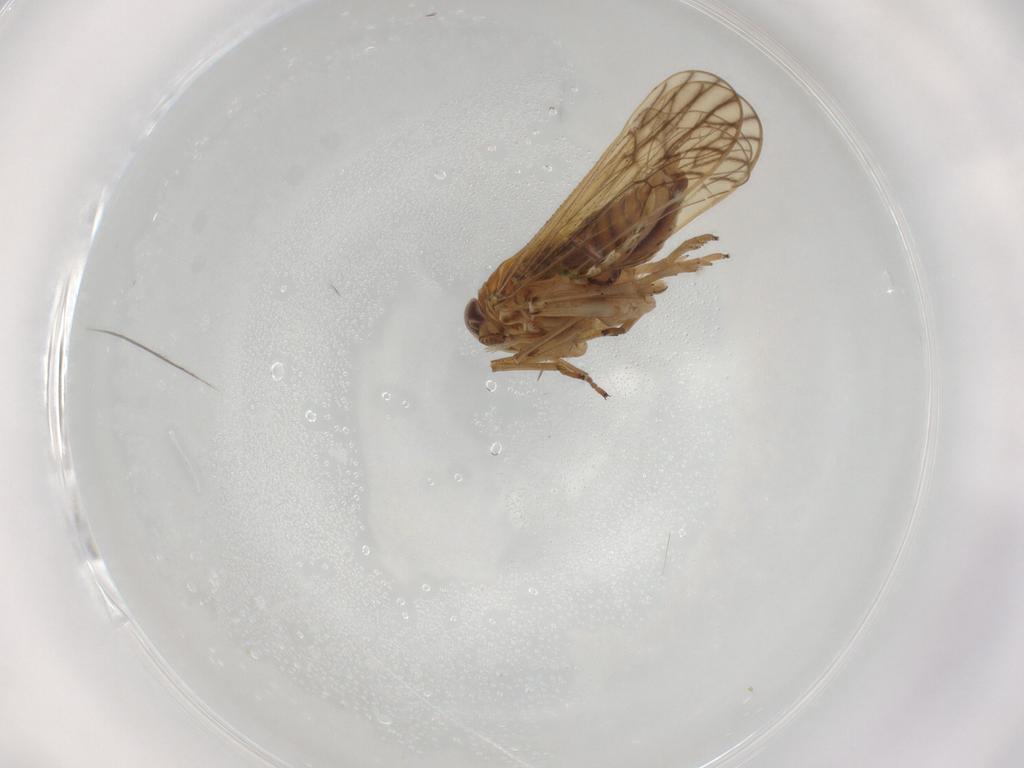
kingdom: Animalia
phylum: Arthropoda
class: Insecta
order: Hemiptera
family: Delphacidae
